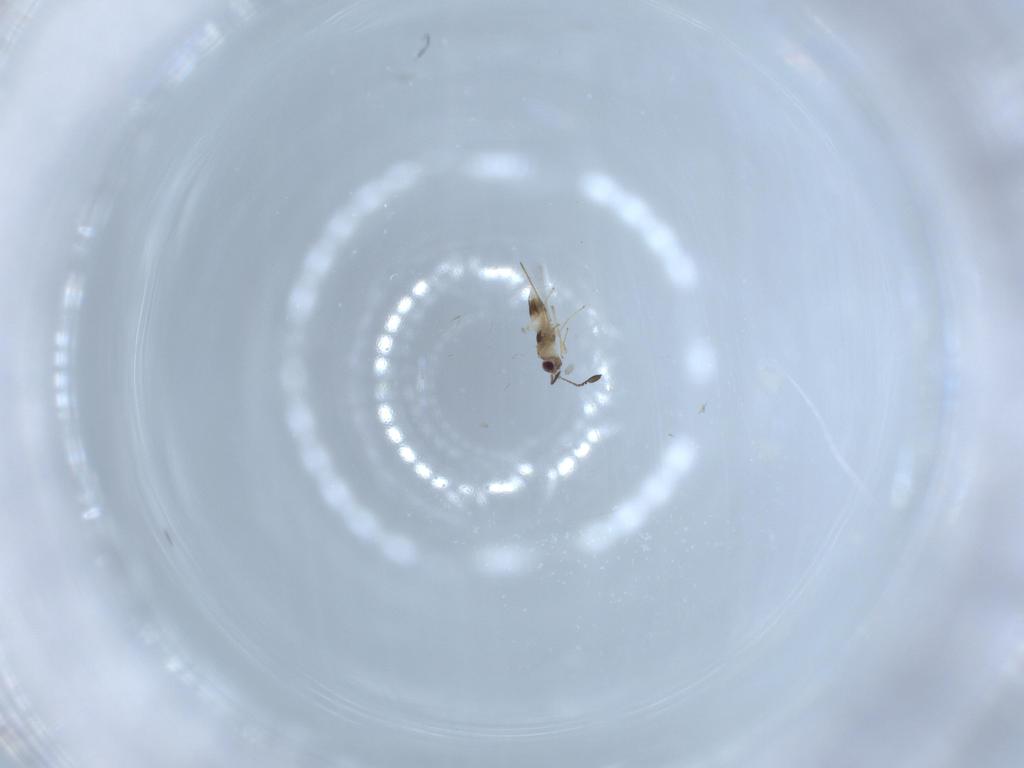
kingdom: Animalia
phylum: Arthropoda
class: Insecta
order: Hymenoptera
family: Mymaridae
